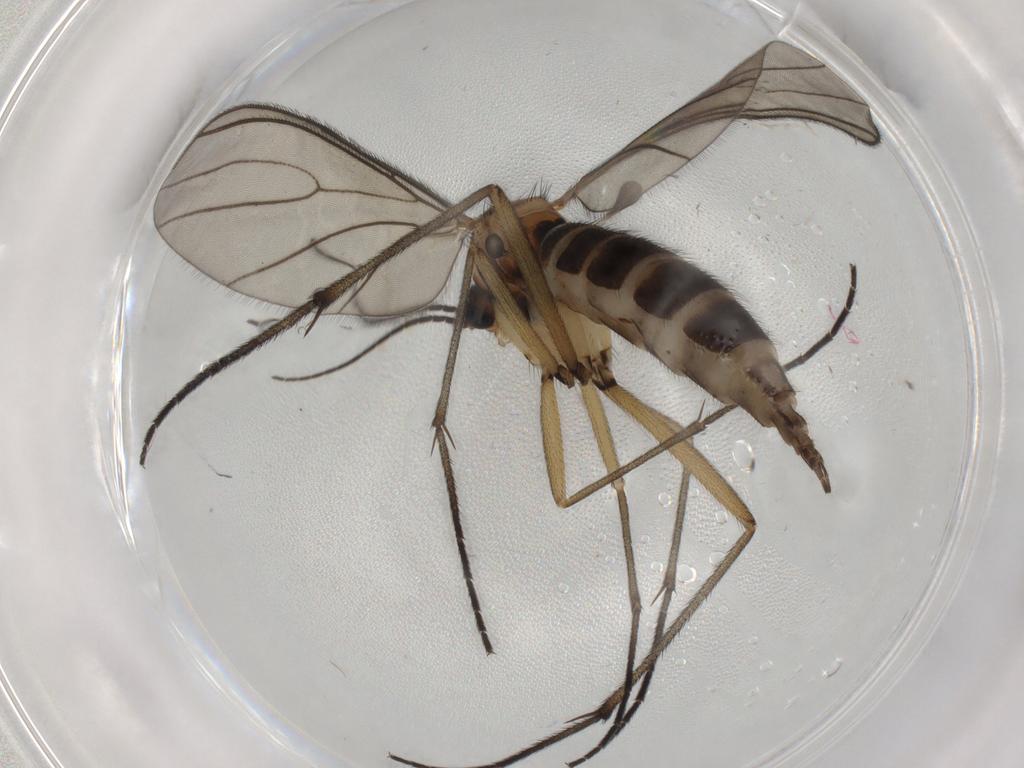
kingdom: Animalia
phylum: Arthropoda
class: Insecta
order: Diptera
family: Sciaridae
